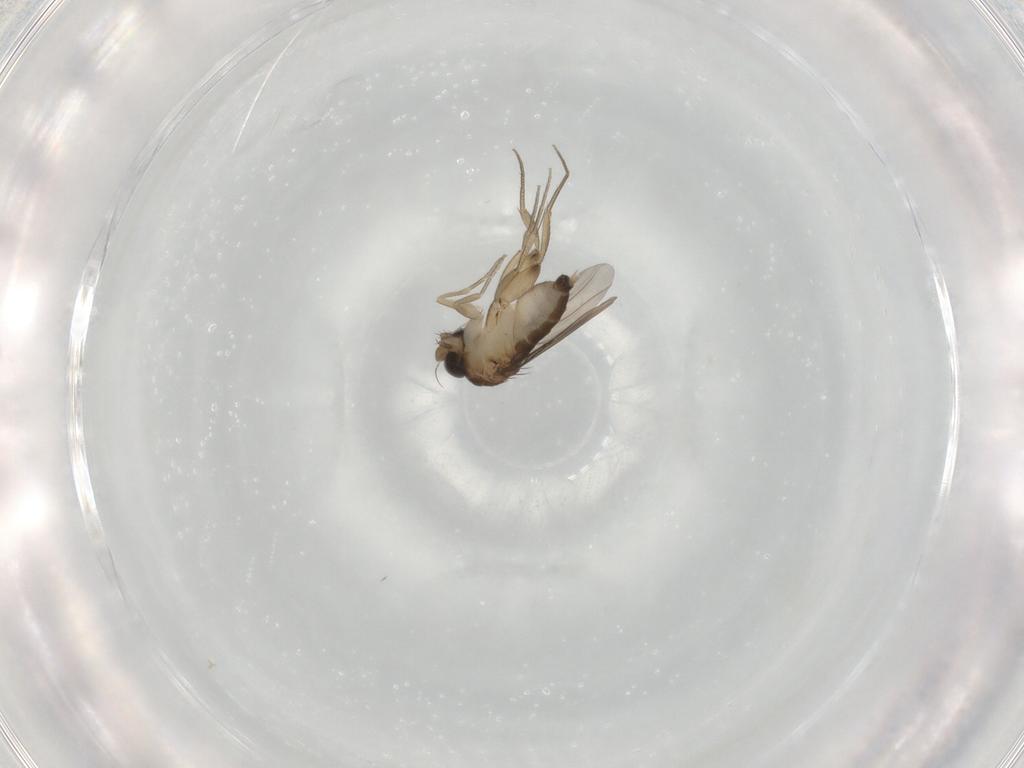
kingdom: Animalia
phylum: Arthropoda
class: Insecta
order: Diptera
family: Phoridae
